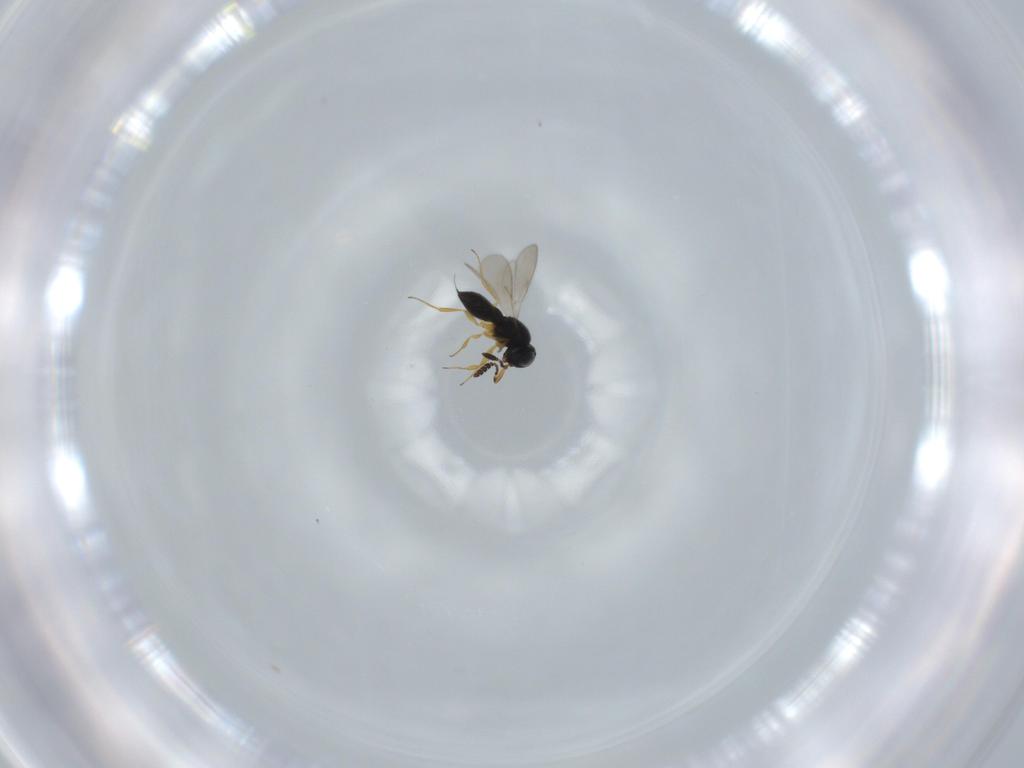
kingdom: Animalia
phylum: Arthropoda
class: Insecta
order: Hymenoptera
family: Scelionidae
